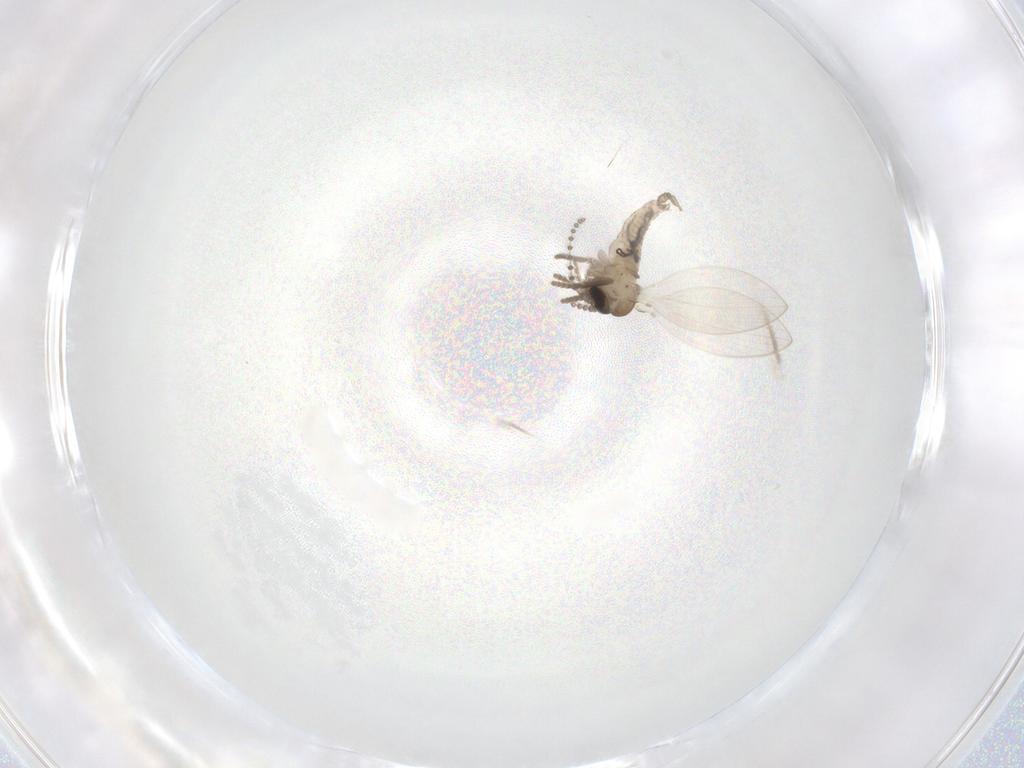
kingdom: Animalia
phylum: Arthropoda
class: Insecta
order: Diptera
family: Psychodidae
